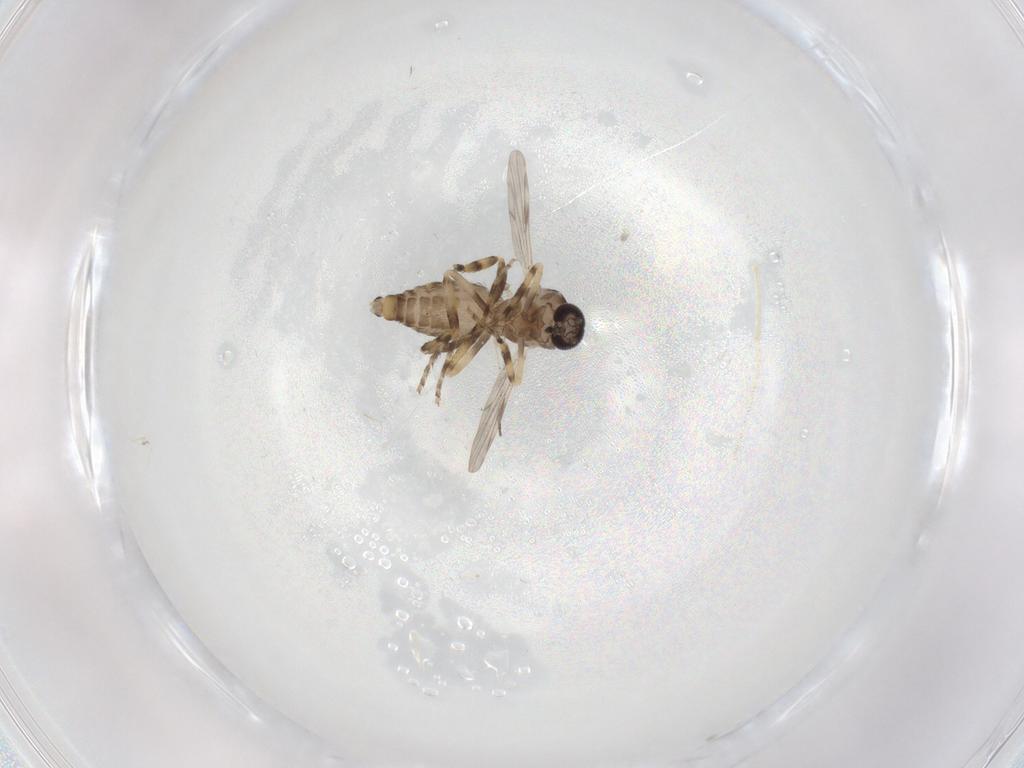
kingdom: Animalia
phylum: Arthropoda
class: Insecta
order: Diptera
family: Ceratopogonidae
